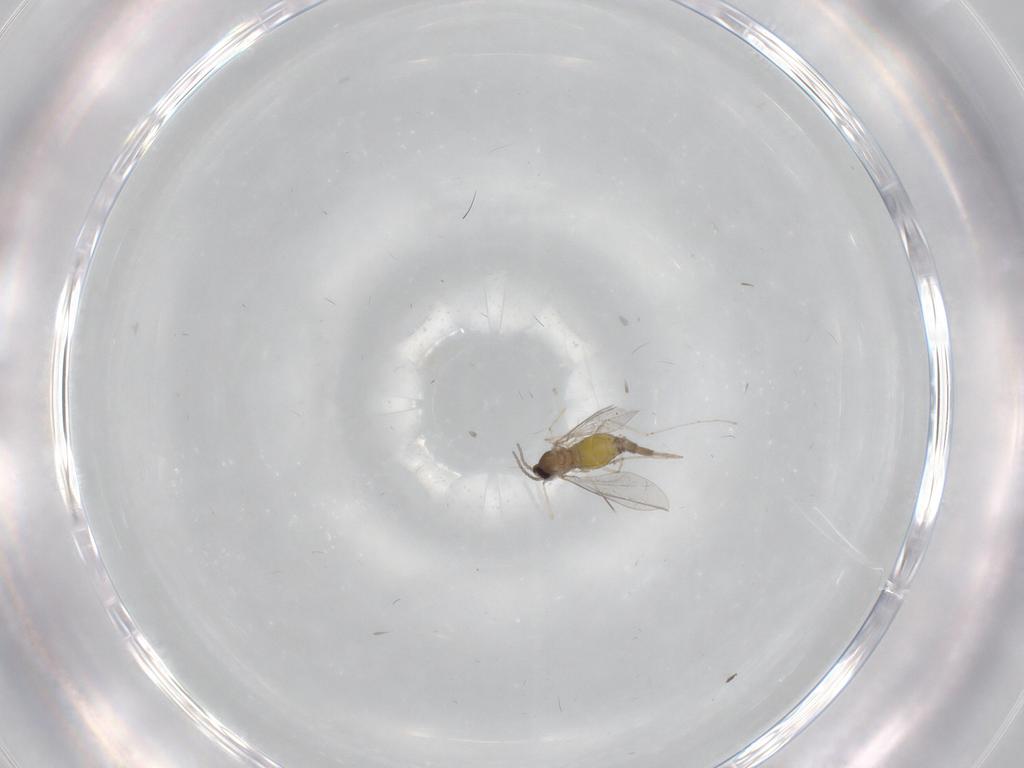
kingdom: Animalia
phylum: Arthropoda
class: Insecta
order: Diptera
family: Cecidomyiidae
